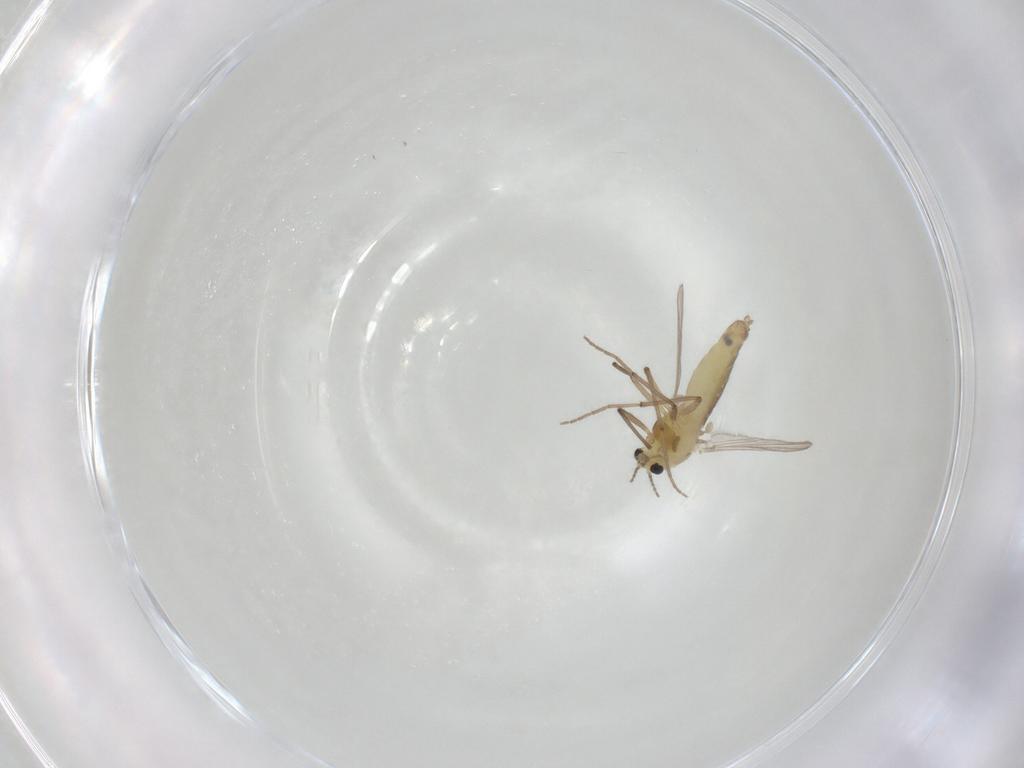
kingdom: Animalia
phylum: Arthropoda
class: Insecta
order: Diptera
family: Chironomidae
